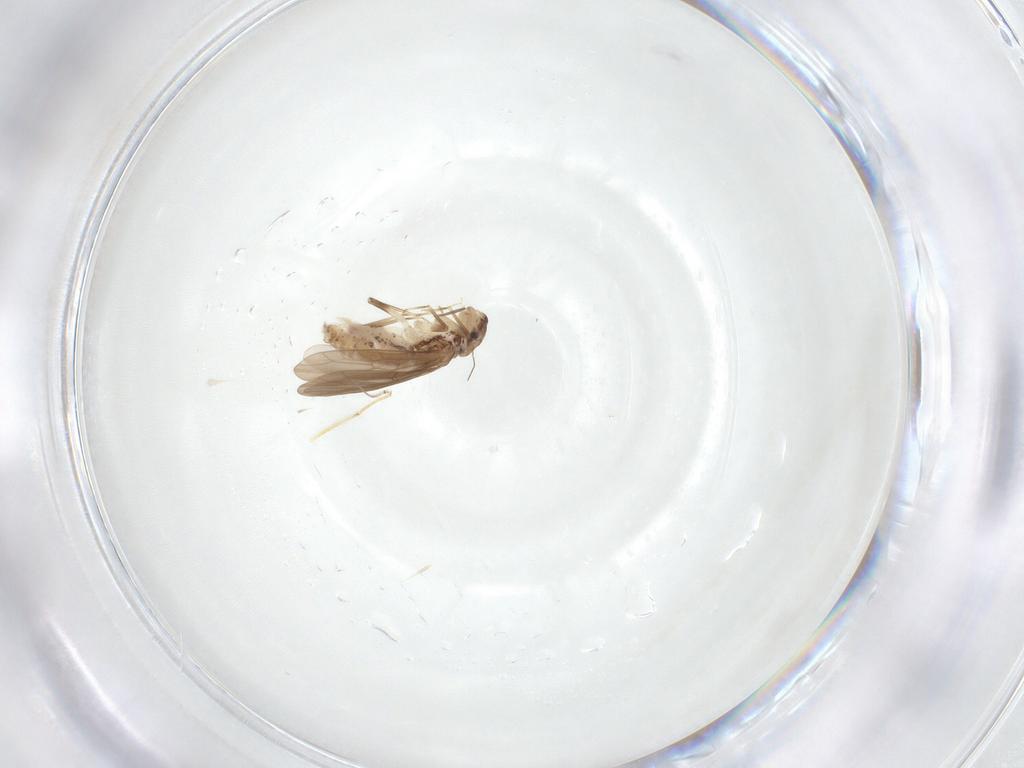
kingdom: Animalia
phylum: Arthropoda
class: Insecta
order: Psocodea
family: Lepidopsocidae
